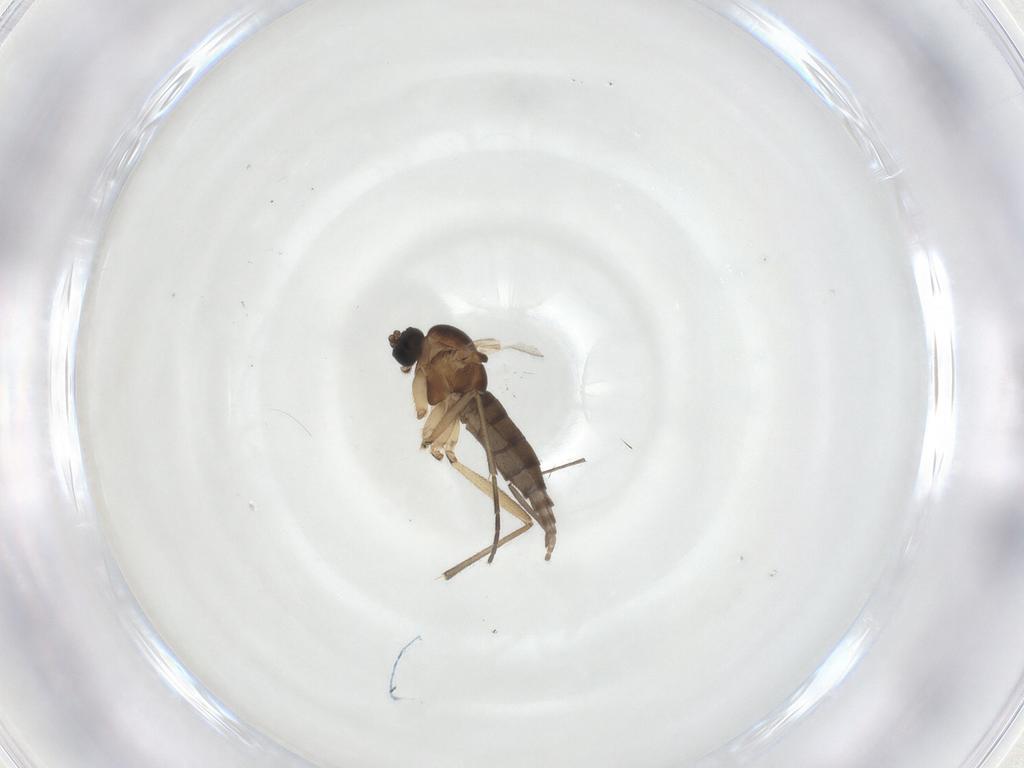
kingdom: Animalia
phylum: Arthropoda
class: Insecta
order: Diptera
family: Sciaridae
